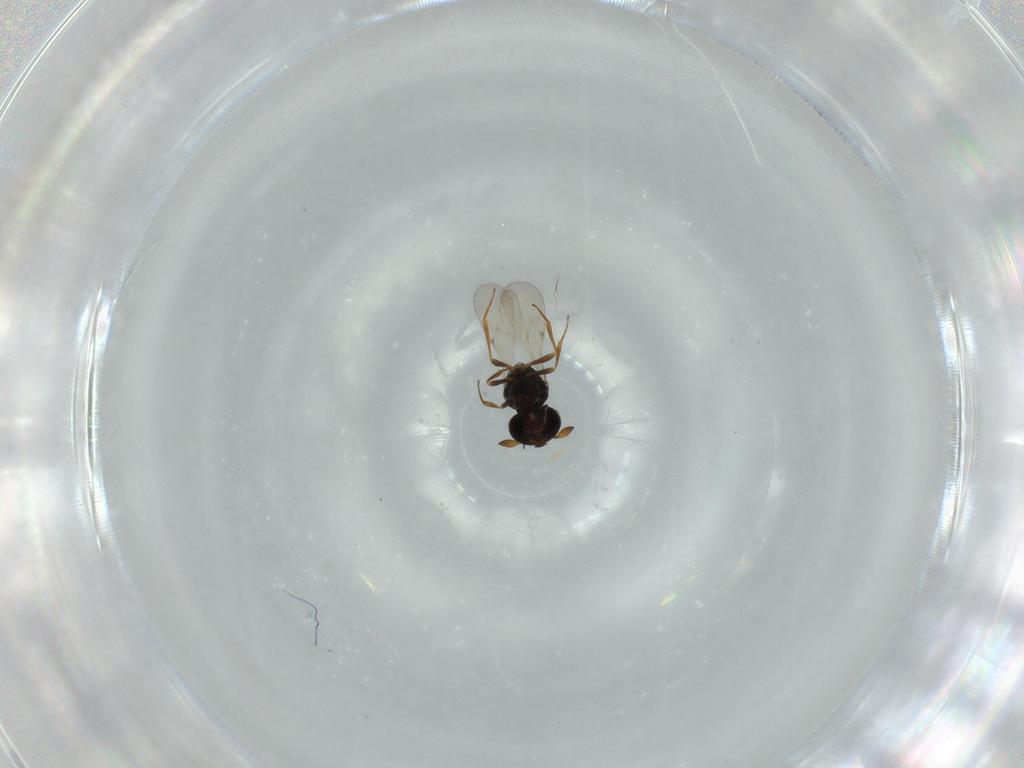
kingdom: Animalia
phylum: Arthropoda
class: Insecta
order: Hymenoptera
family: Scelionidae
